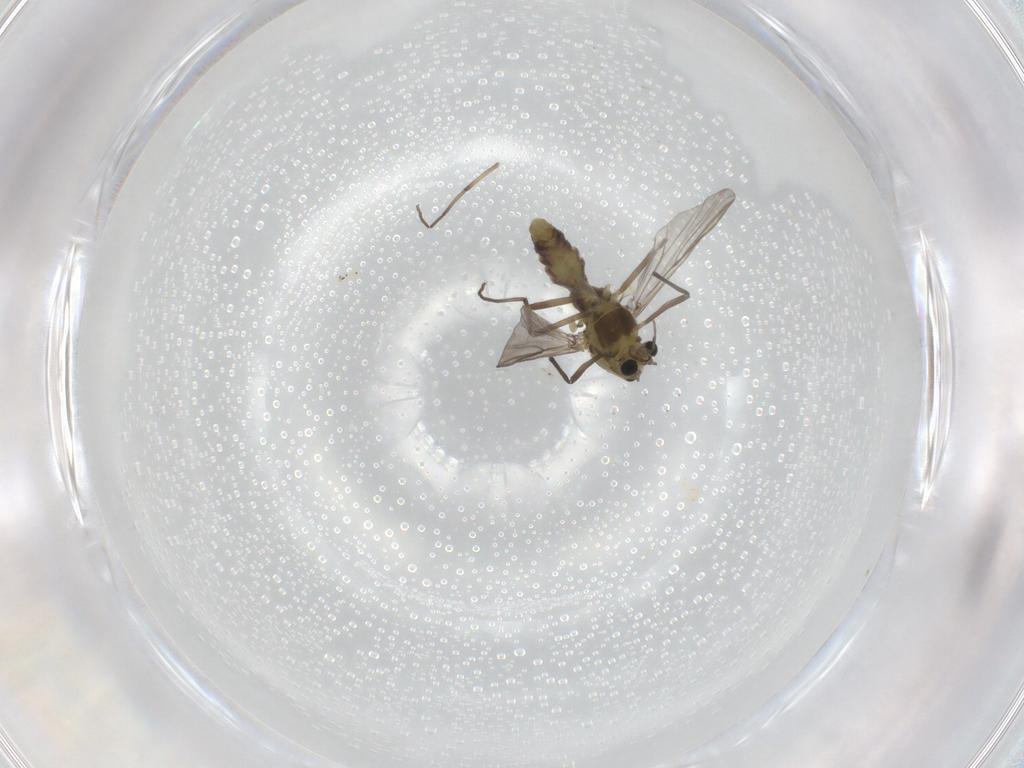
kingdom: Animalia
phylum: Arthropoda
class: Insecta
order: Diptera
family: Chironomidae
